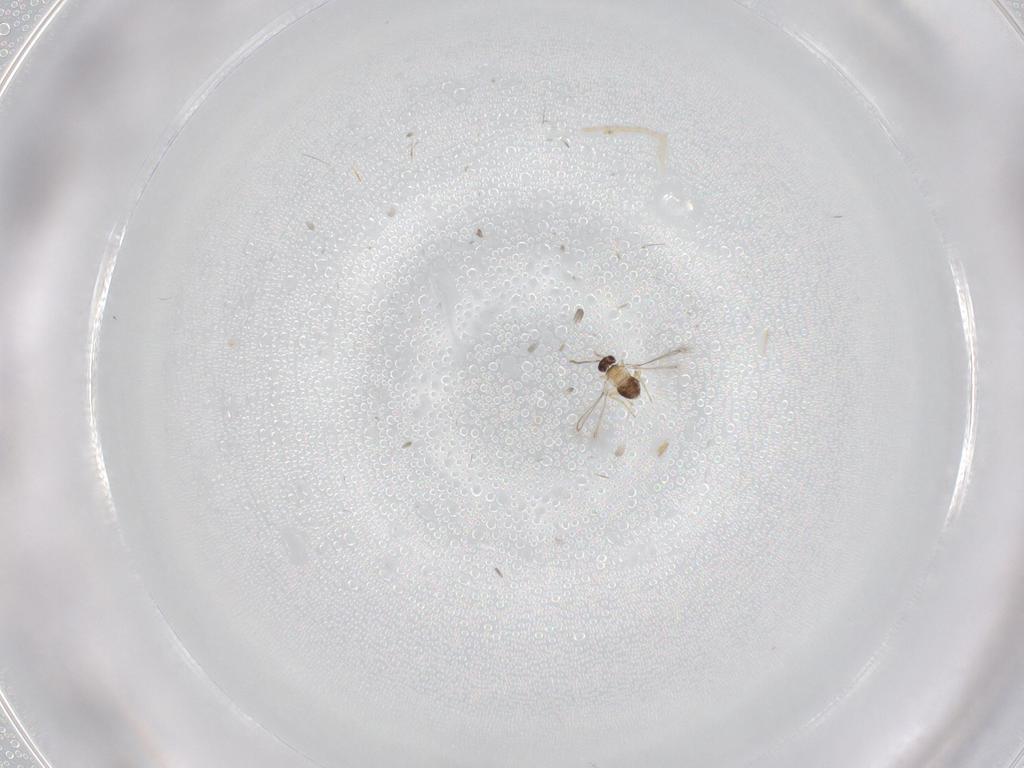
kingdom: Animalia
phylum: Arthropoda
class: Insecta
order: Hymenoptera
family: Mymaridae
